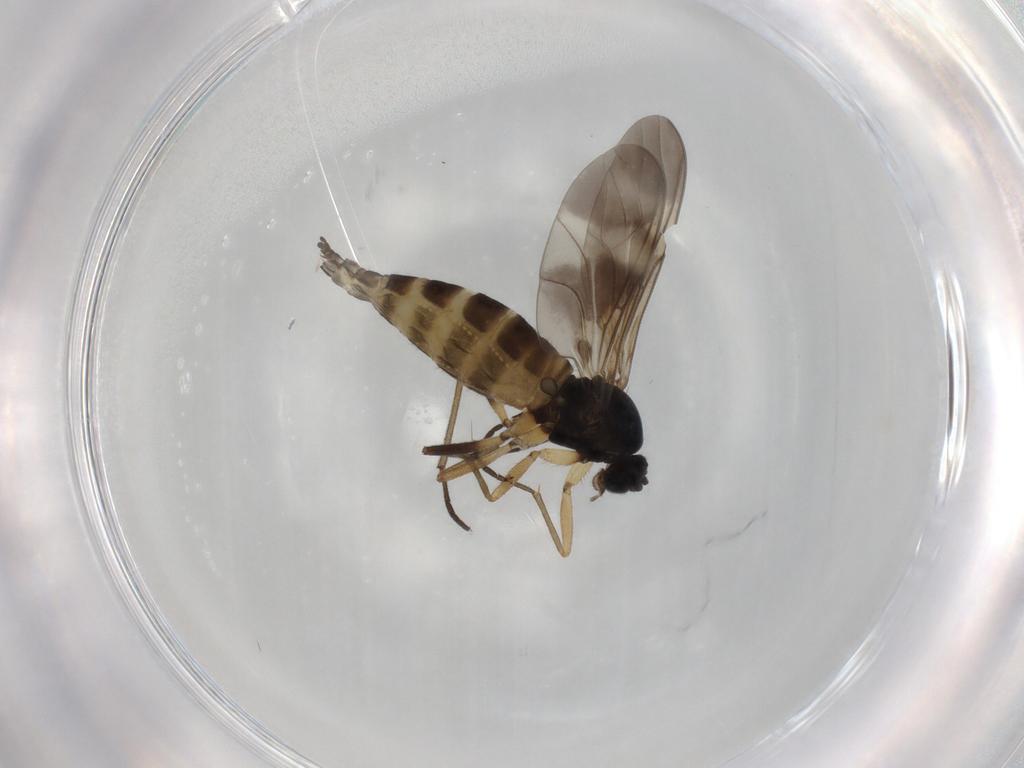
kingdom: Animalia
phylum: Arthropoda
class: Insecta
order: Diptera
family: Sciaridae
